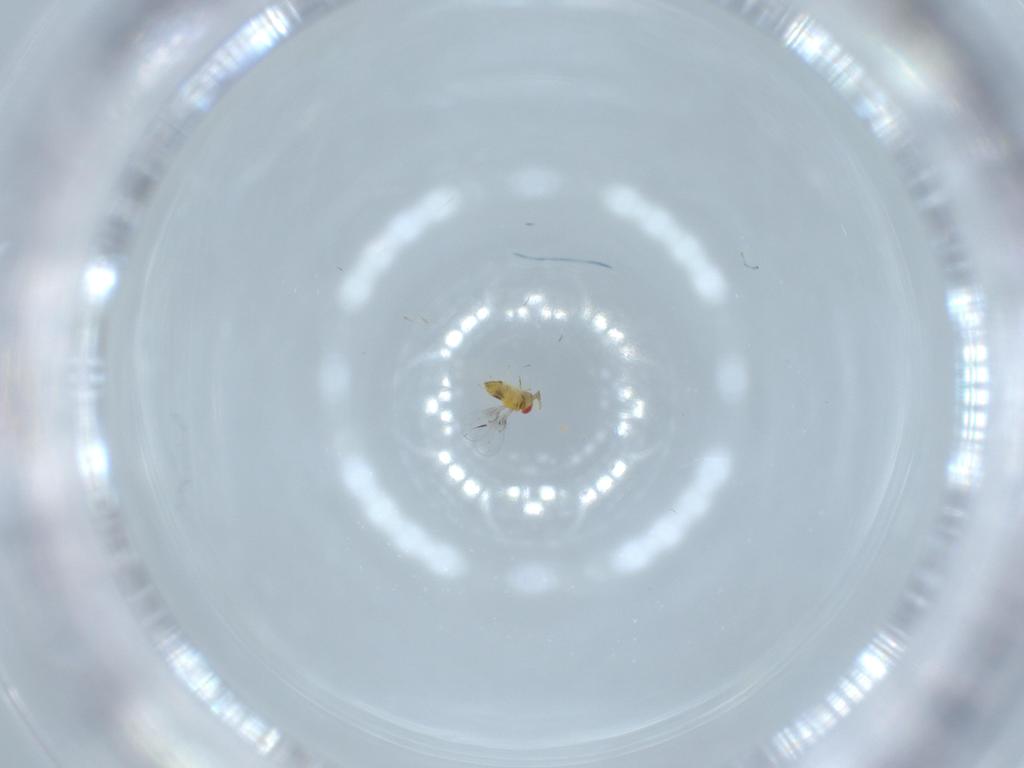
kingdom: Animalia
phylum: Arthropoda
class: Insecta
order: Hymenoptera
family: Trichogrammatidae
